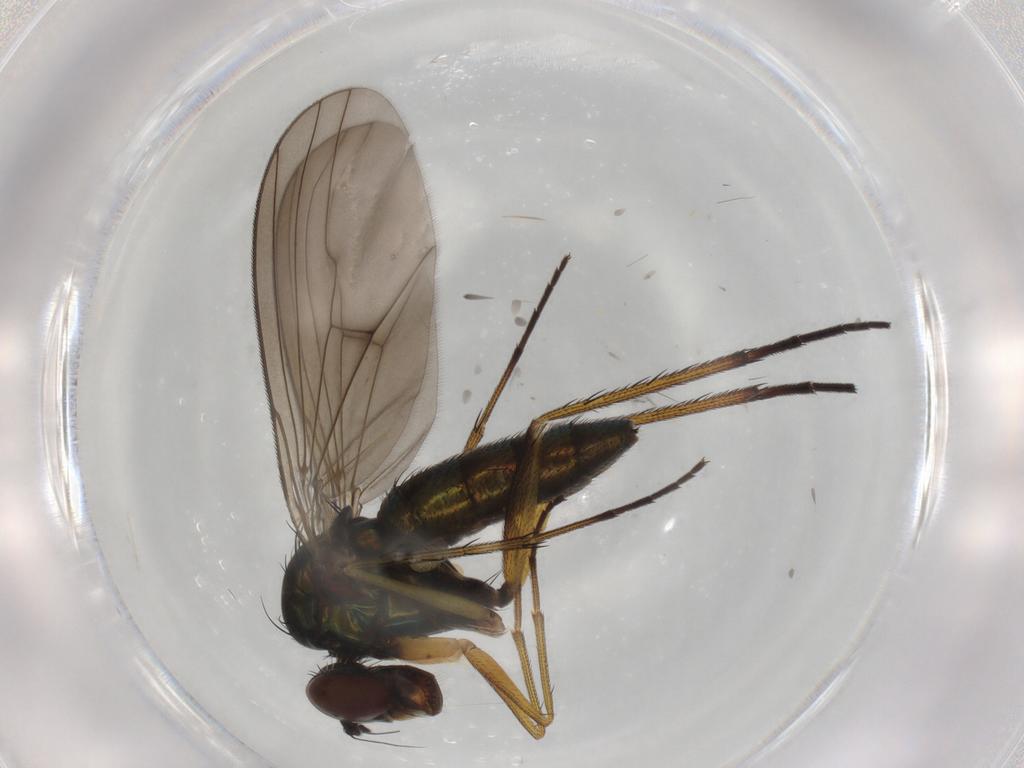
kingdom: Animalia
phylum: Arthropoda
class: Insecta
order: Diptera
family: Dolichopodidae
